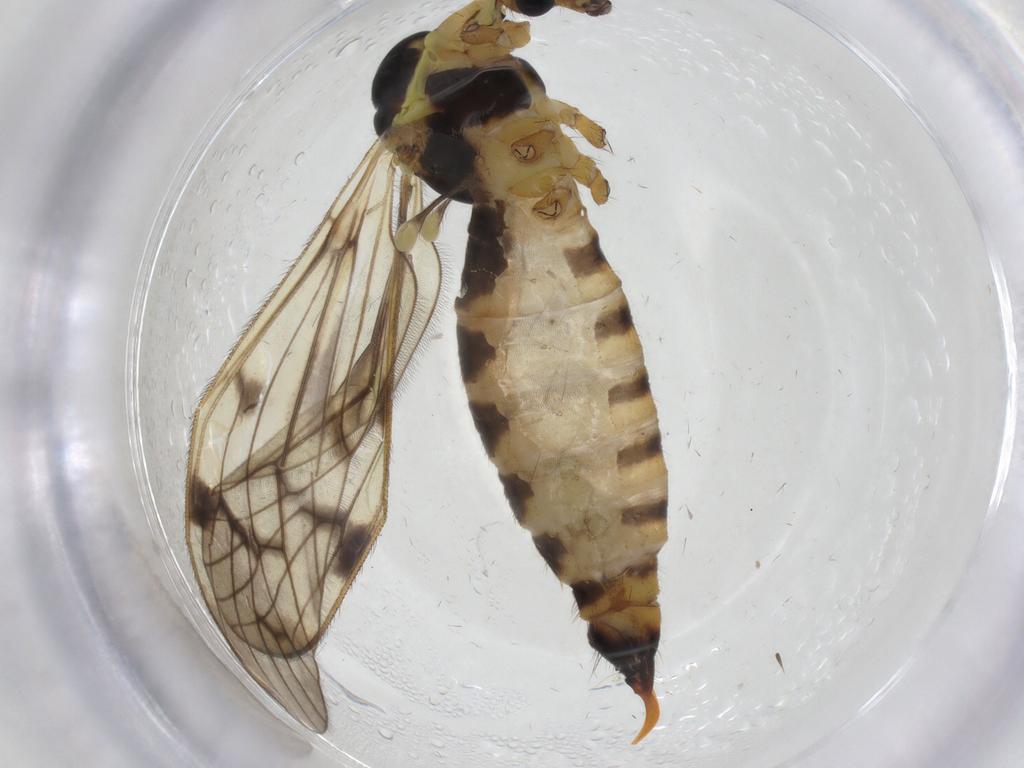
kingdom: Animalia
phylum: Arthropoda
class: Insecta
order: Diptera
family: Limoniidae
